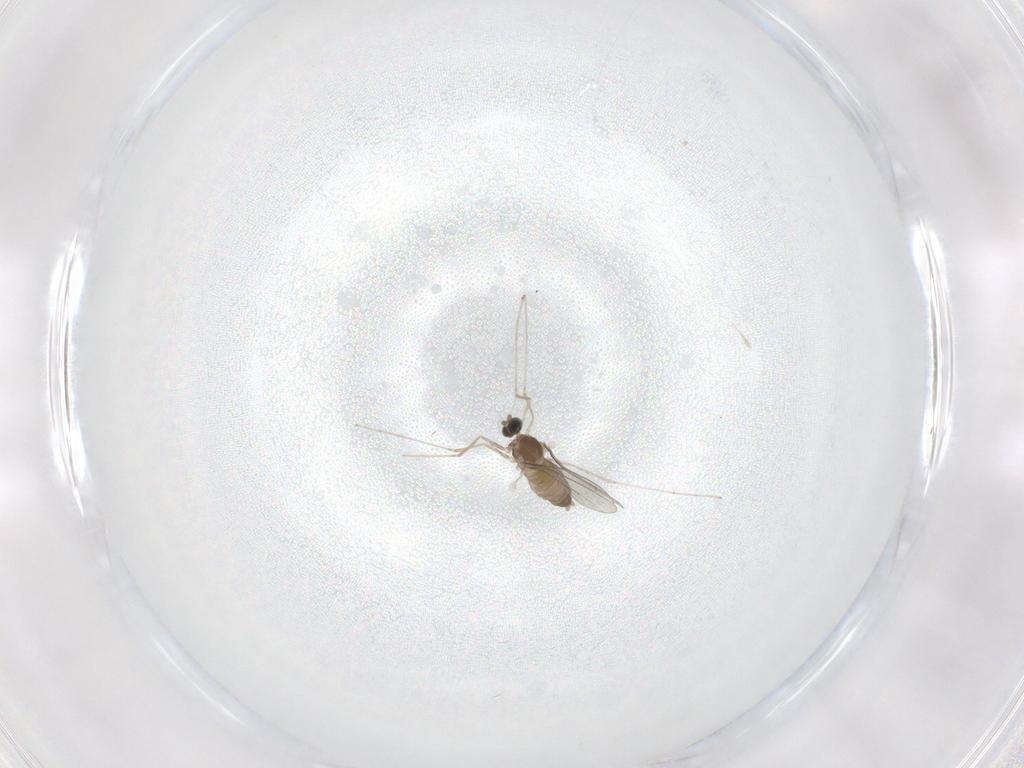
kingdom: Animalia
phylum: Arthropoda
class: Insecta
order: Diptera
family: Cecidomyiidae
